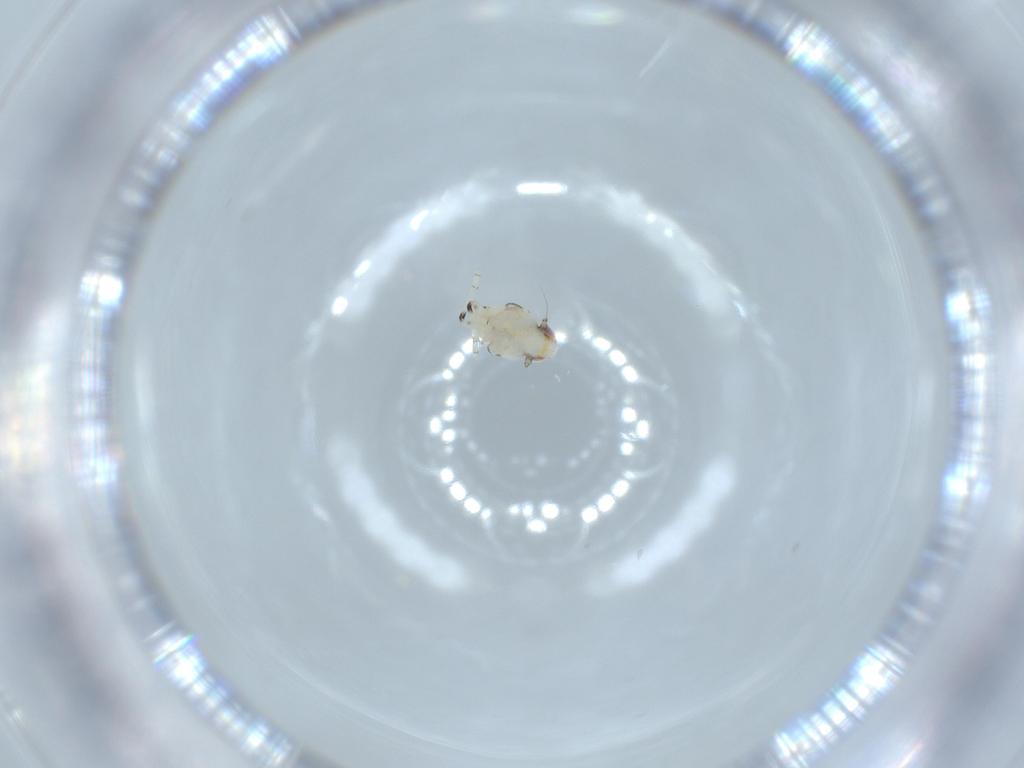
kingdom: Animalia
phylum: Arthropoda
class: Insecta
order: Hemiptera
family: Nogodinidae
